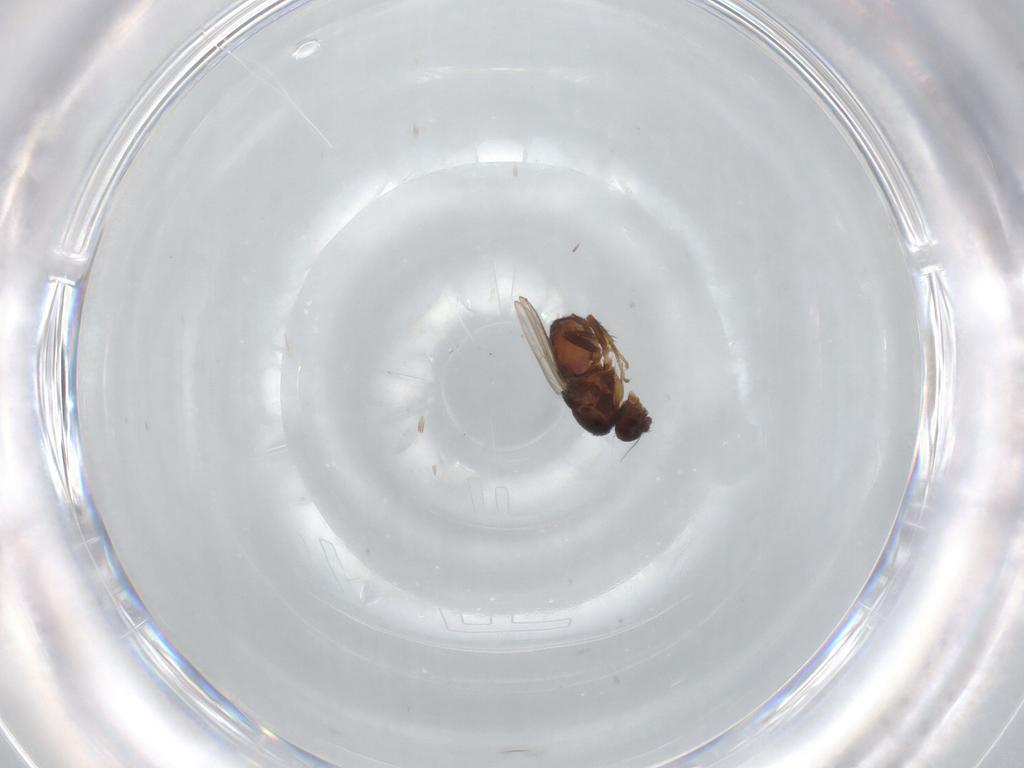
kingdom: Animalia
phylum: Arthropoda
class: Insecta
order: Diptera
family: Sphaeroceridae
